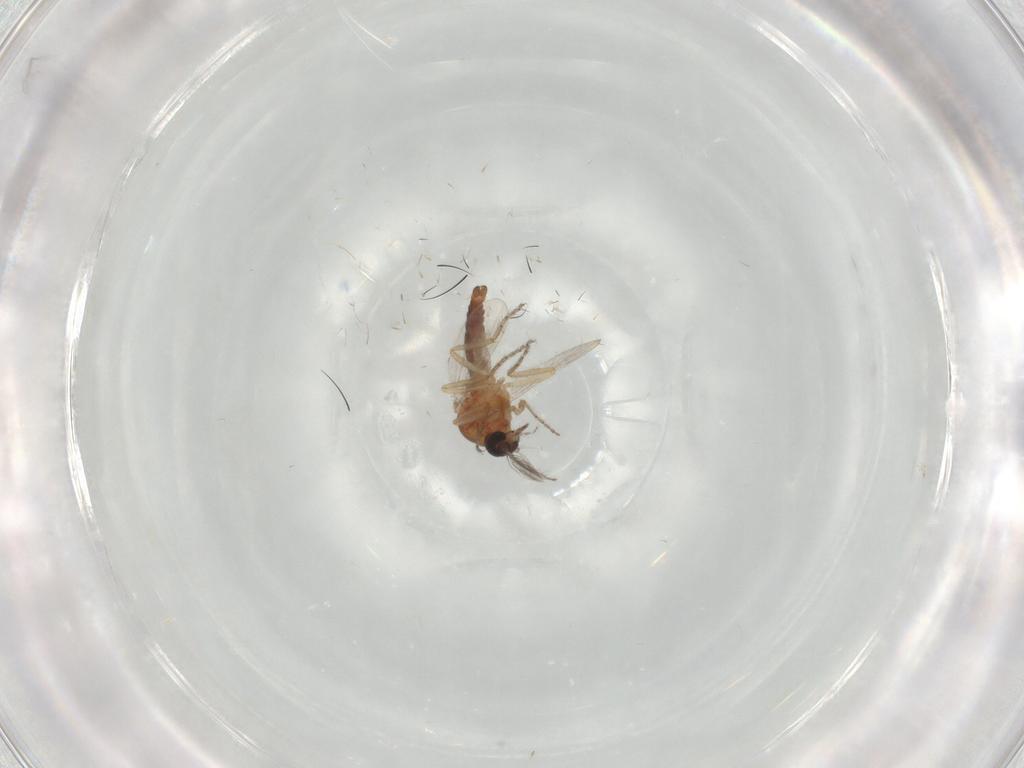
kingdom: Animalia
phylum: Arthropoda
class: Insecta
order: Diptera
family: Ceratopogonidae
